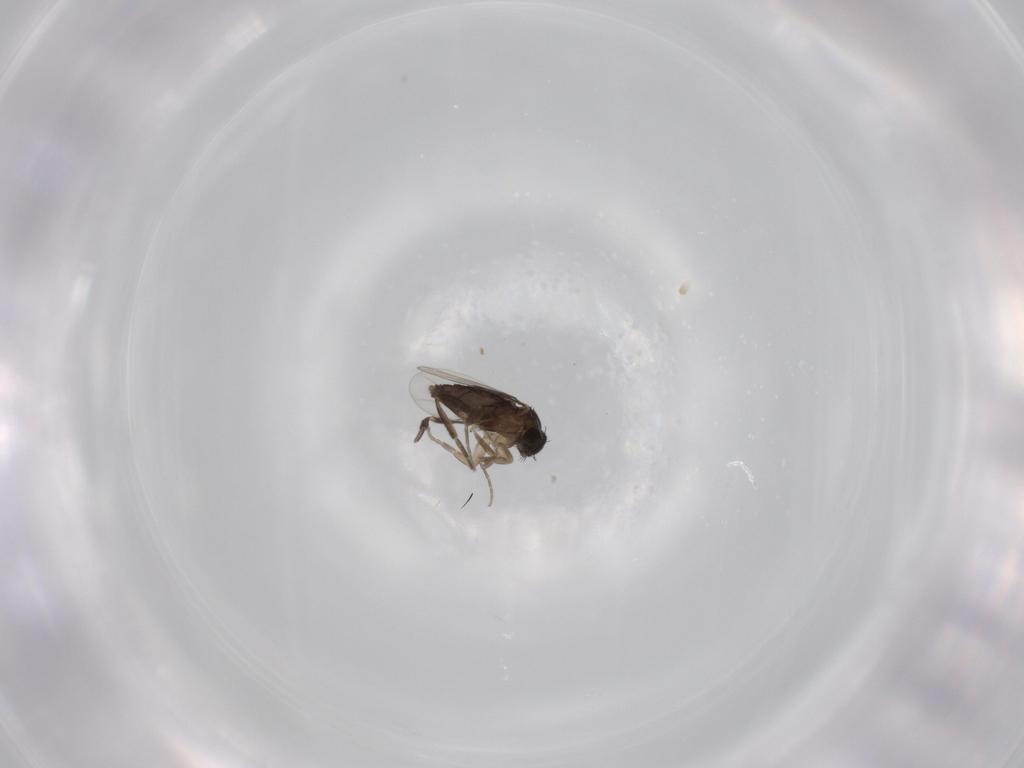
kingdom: Animalia
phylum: Arthropoda
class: Insecta
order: Diptera
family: Phoridae
